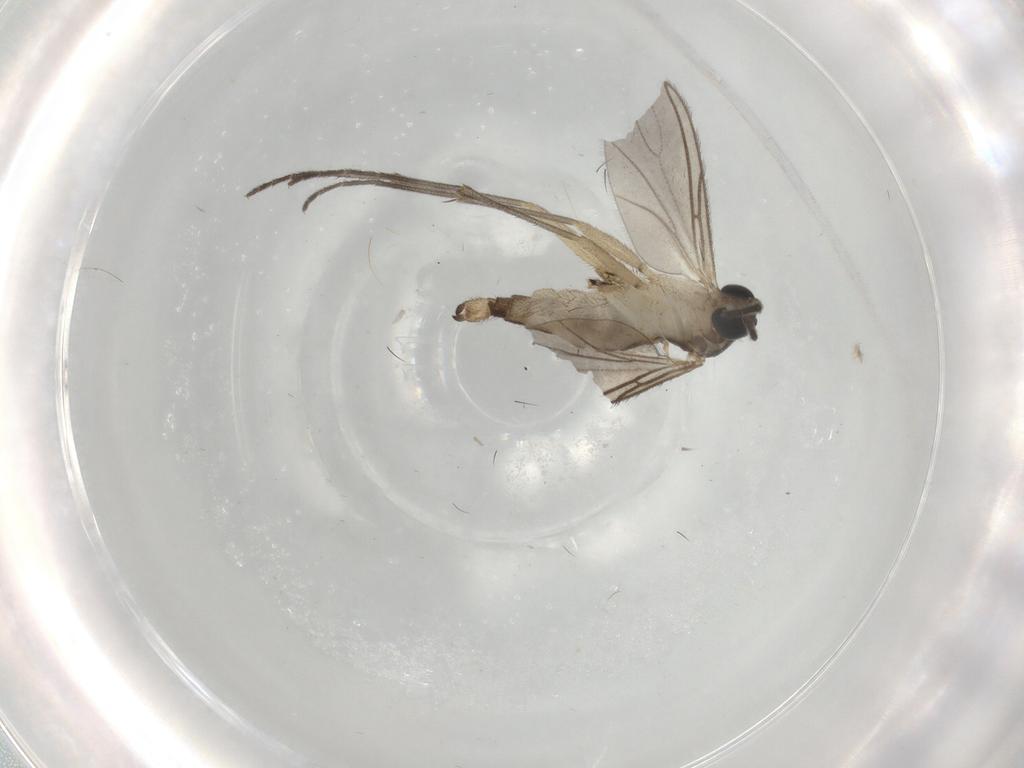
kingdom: Animalia
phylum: Arthropoda
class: Insecta
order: Diptera
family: Sciaridae
